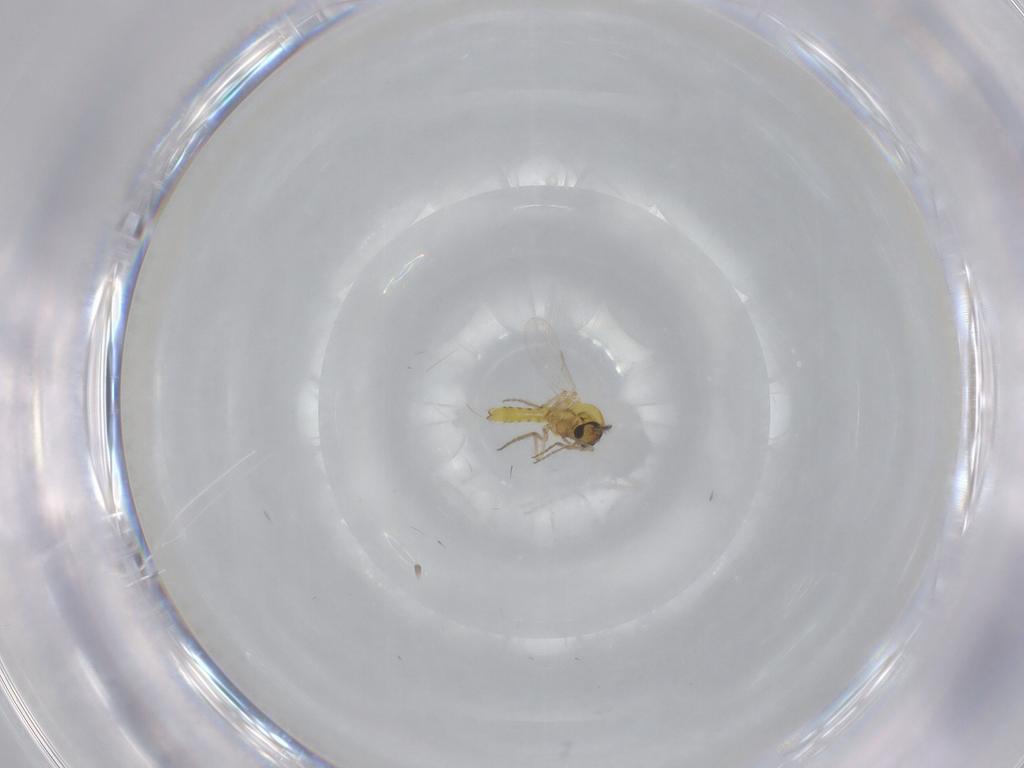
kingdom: Animalia
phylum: Arthropoda
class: Insecta
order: Diptera
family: Ceratopogonidae
